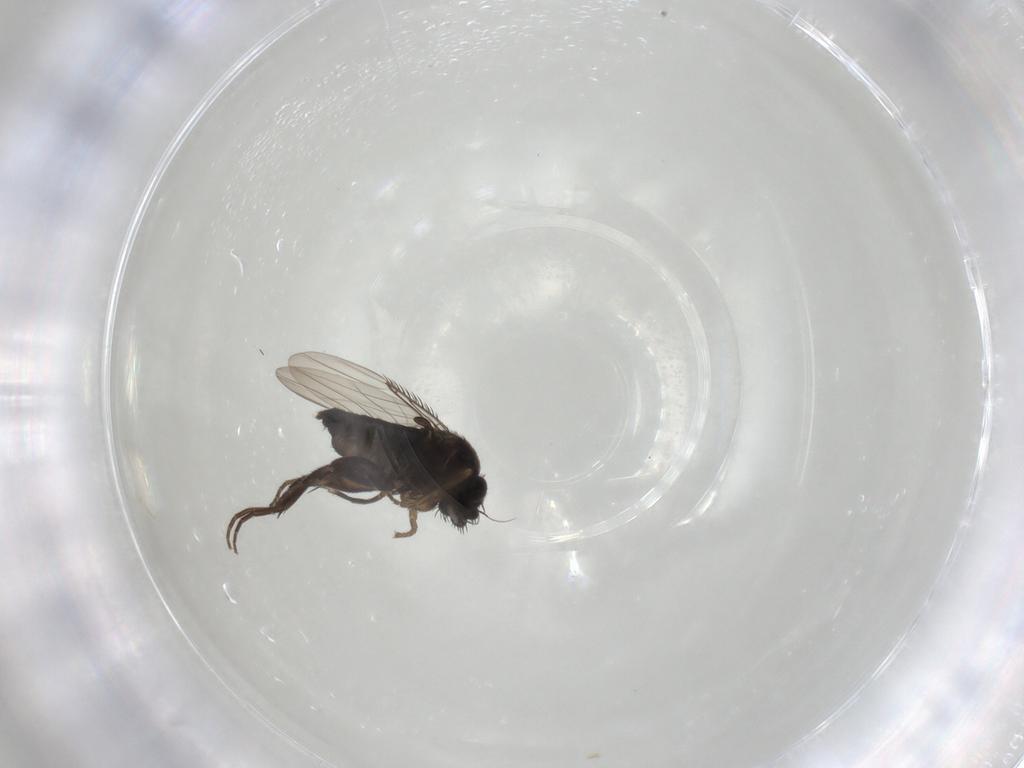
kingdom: Animalia
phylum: Arthropoda
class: Insecta
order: Diptera
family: Phoridae
